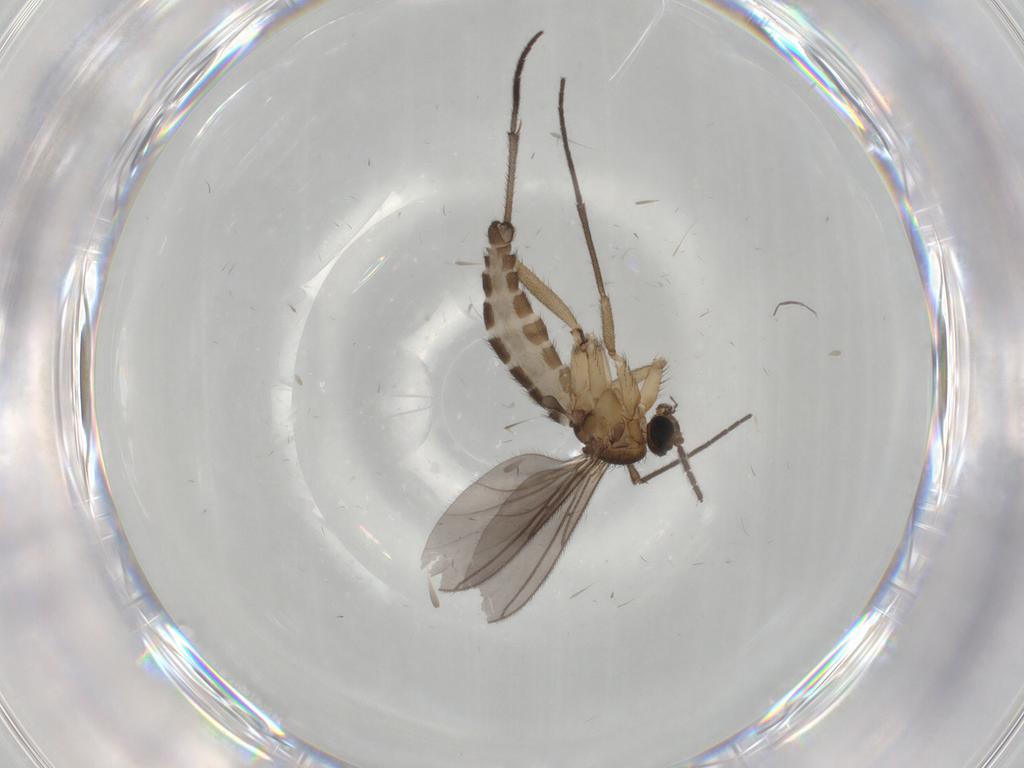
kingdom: Animalia
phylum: Arthropoda
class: Insecta
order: Diptera
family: Sciaridae
